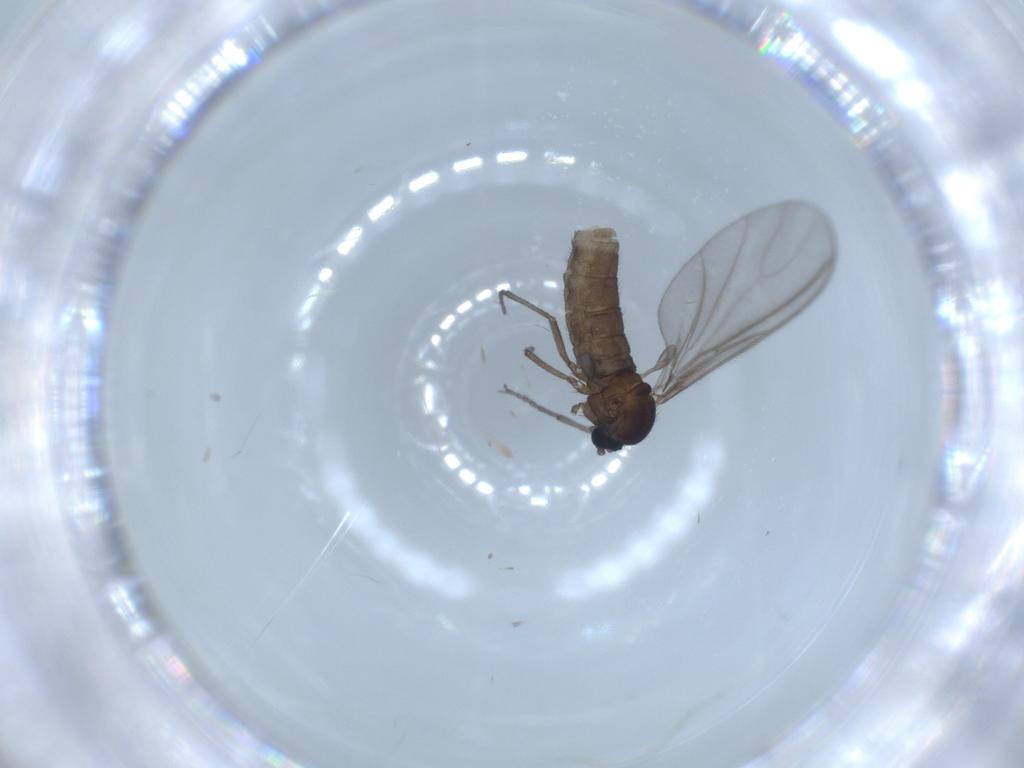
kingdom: Animalia
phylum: Arthropoda
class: Insecta
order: Diptera
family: Sciaridae
